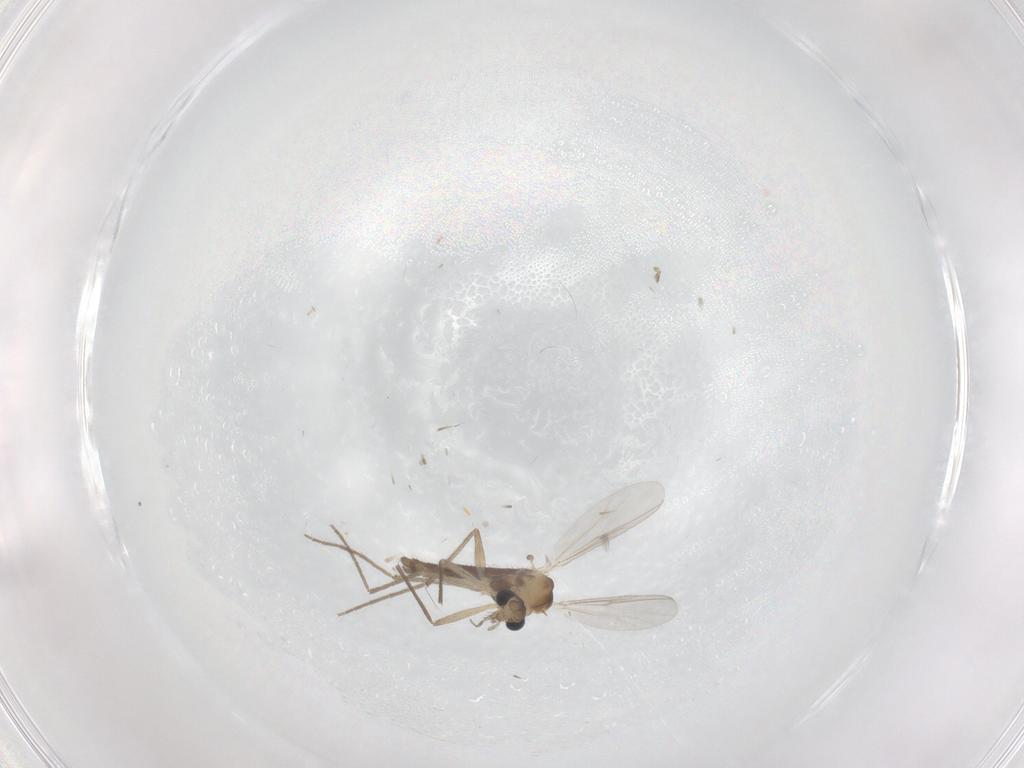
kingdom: Animalia
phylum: Arthropoda
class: Insecta
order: Diptera
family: Chironomidae
